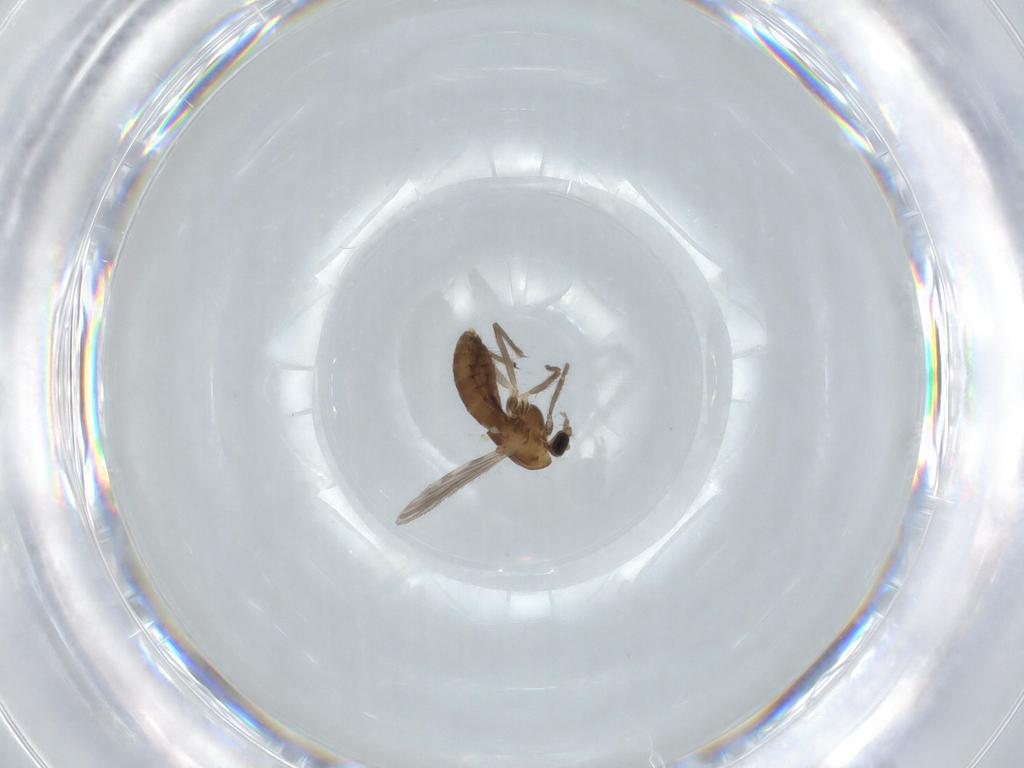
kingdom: Animalia
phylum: Arthropoda
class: Insecta
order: Diptera
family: Chironomidae
